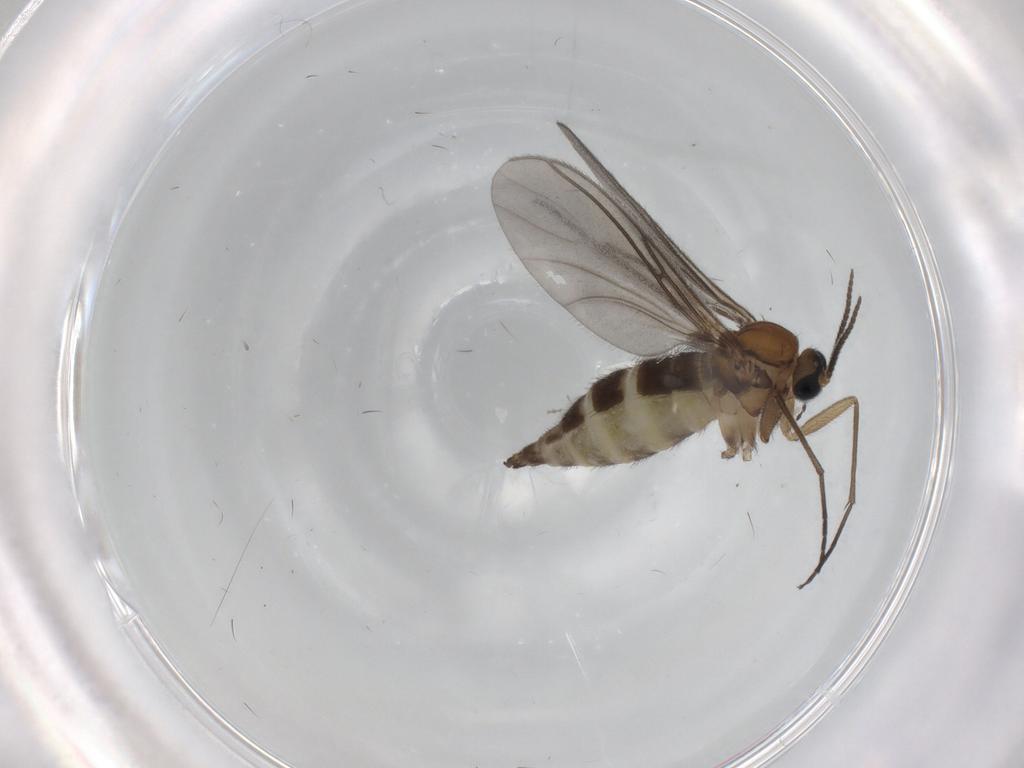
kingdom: Animalia
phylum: Arthropoda
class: Insecta
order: Diptera
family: Sciaridae
